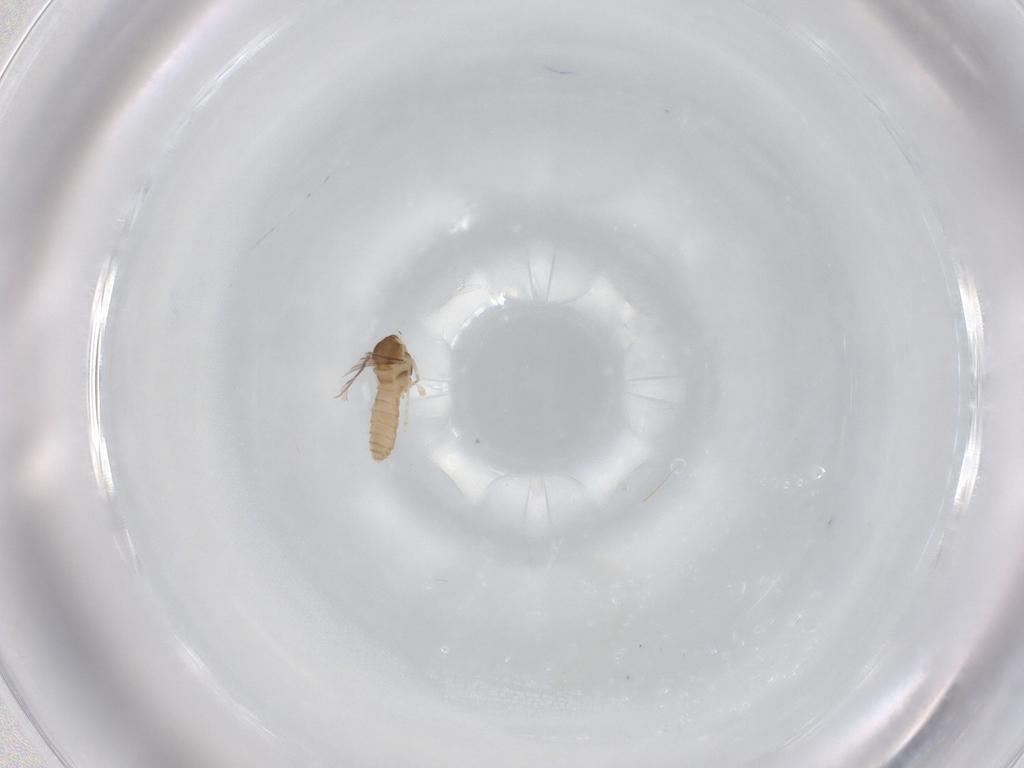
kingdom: Animalia
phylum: Arthropoda
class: Insecta
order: Diptera
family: Cecidomyiidae
